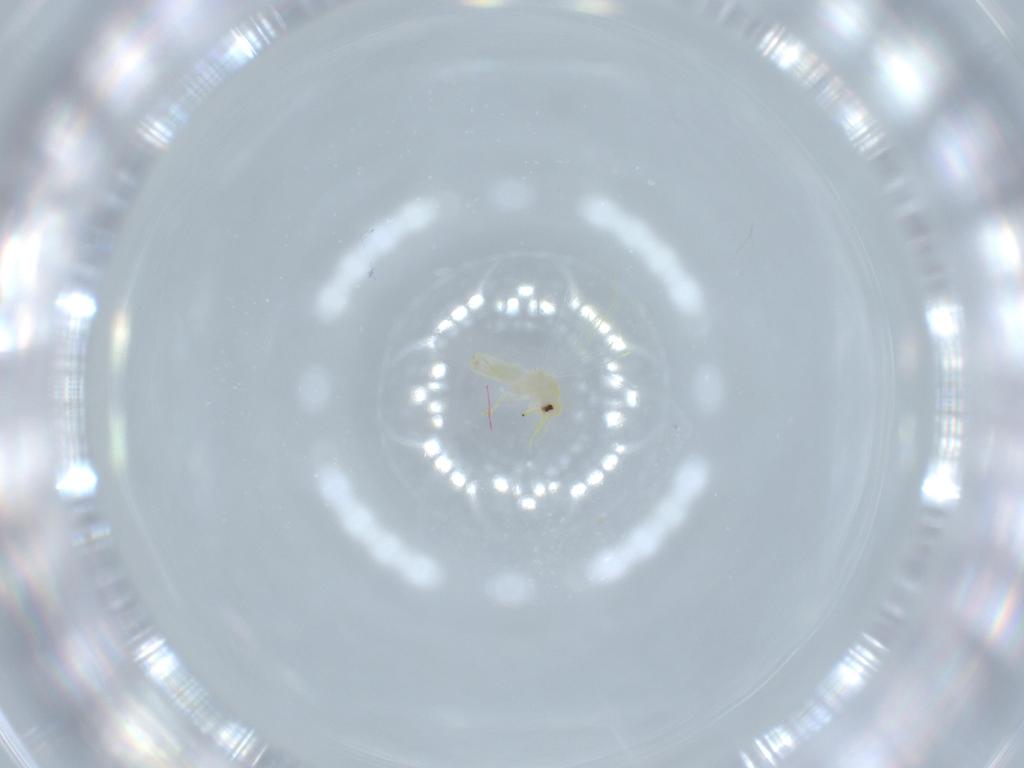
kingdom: Animalia
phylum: Arthropoda
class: Insecta
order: Hemiptera
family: Aleyrodidae
